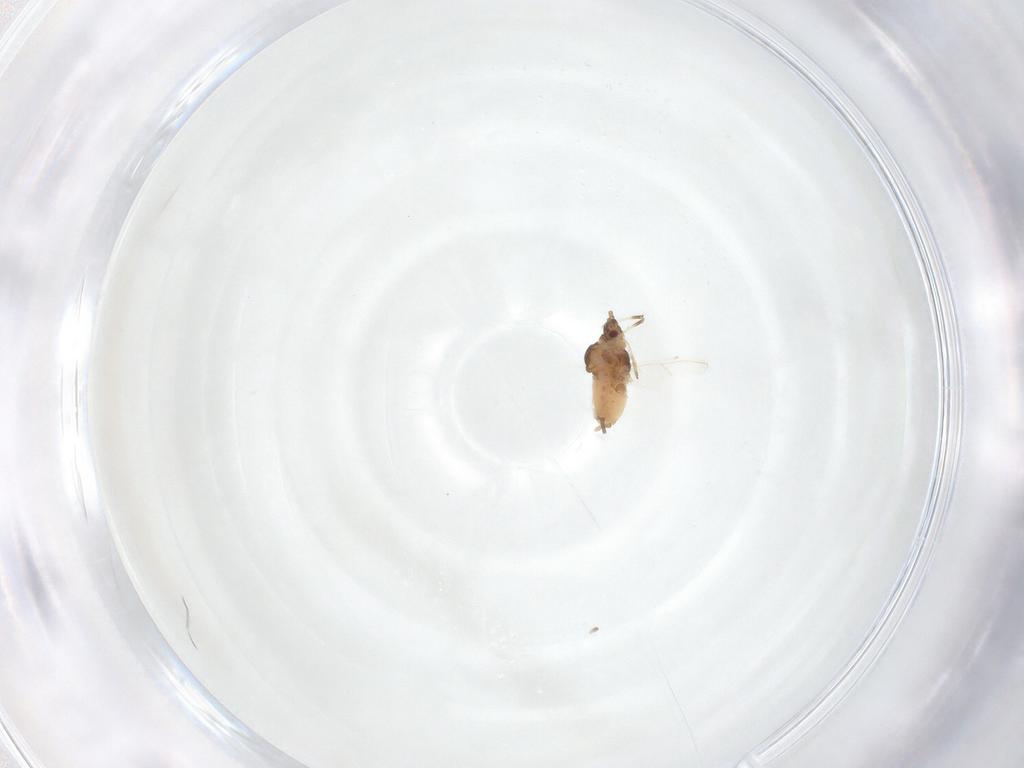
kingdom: Animalia
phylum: Arthropoda
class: Insecta
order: Hemiptera
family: Aphididae
